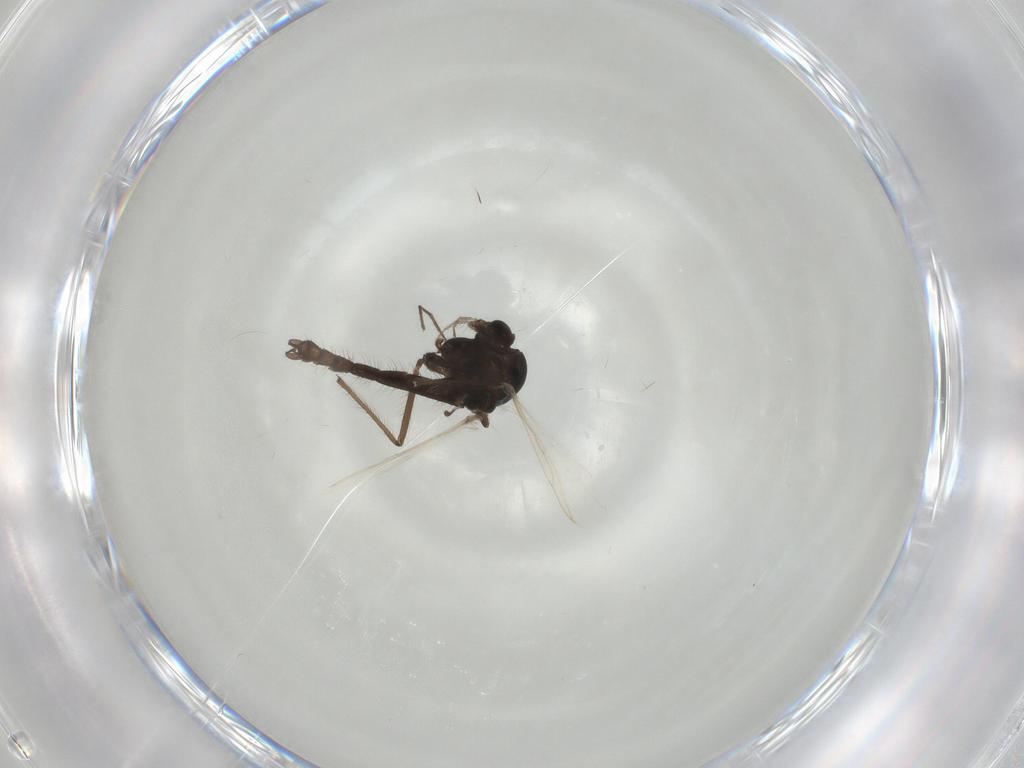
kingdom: Animalia
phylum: Arthropoda
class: Insecta
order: Diptera
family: Chironomidae
